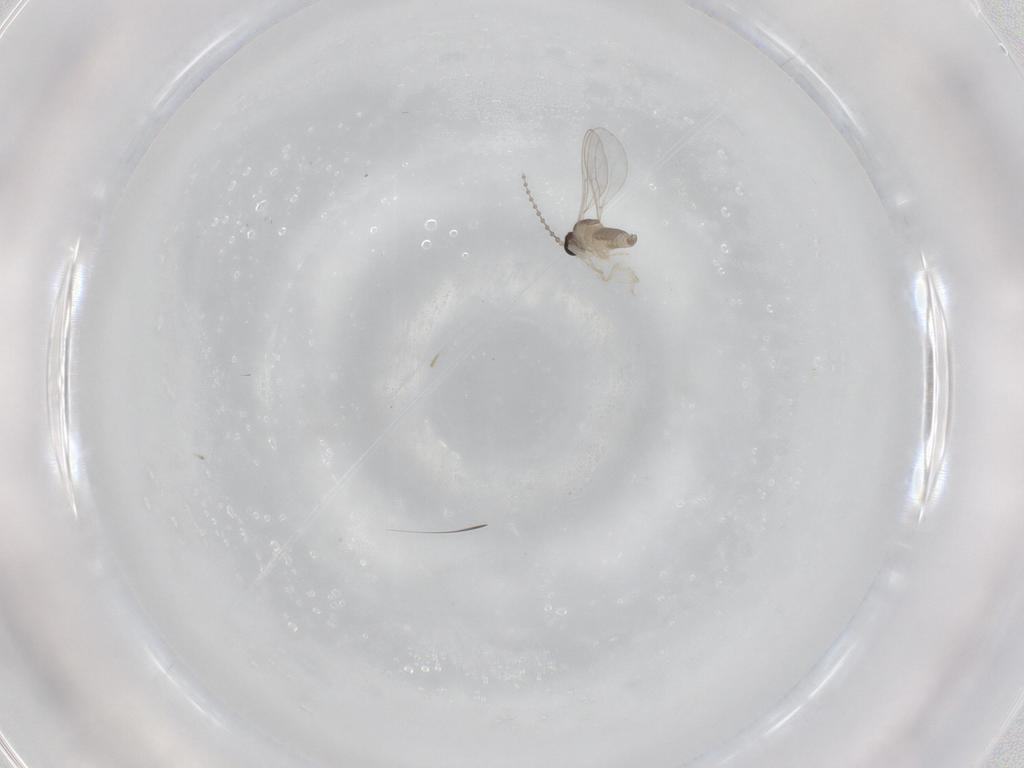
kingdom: Animalia
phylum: Arthropoda
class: Insecta
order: Diptera
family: Cecidomyiidae
